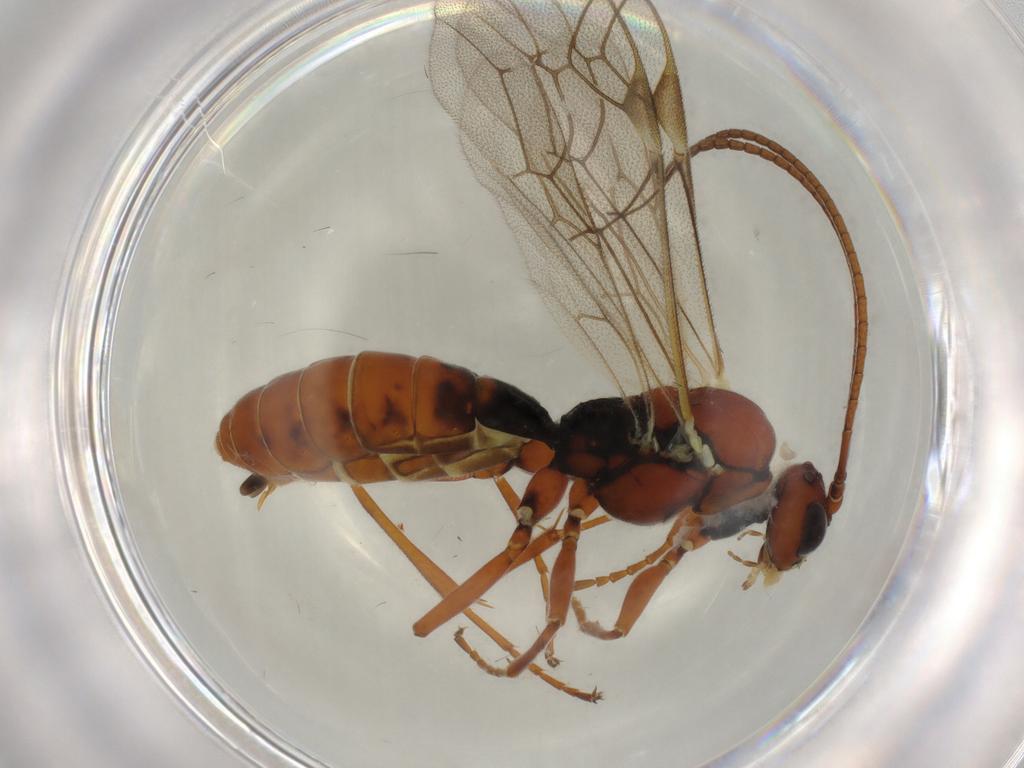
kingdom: Animalia
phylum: Arthropoda
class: Insecta
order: Hymenoptera
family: Ichneumonidae
